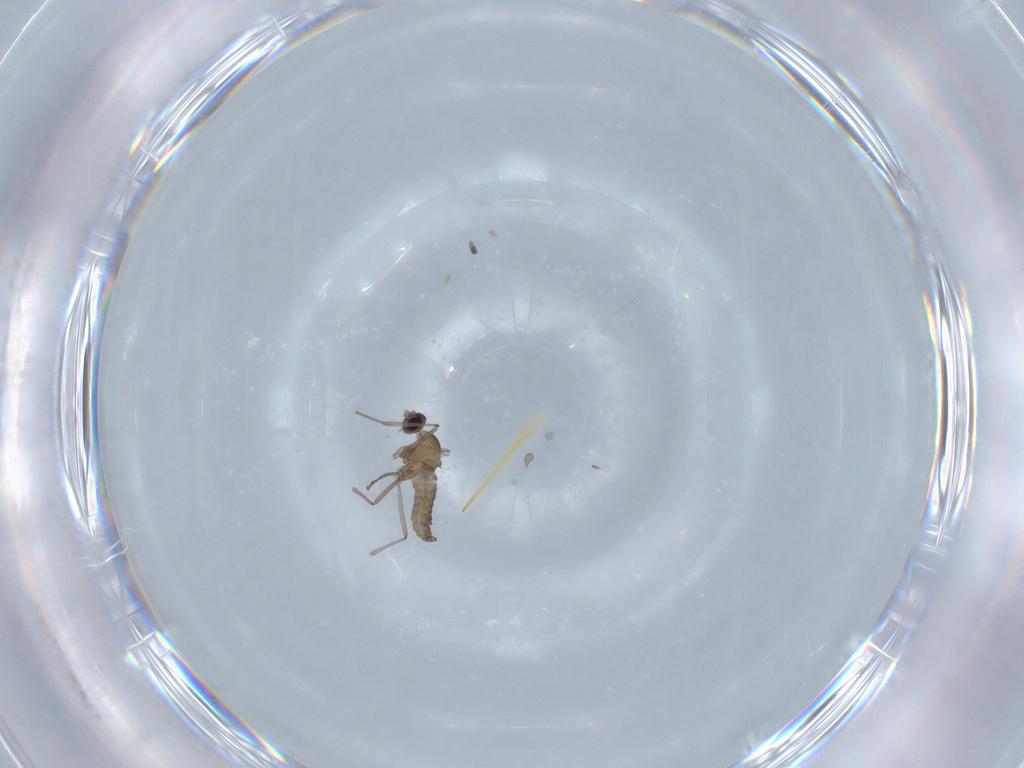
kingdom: Animalia
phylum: Arthropoda
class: Insecta
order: Diptera
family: Cecidomyiidae
